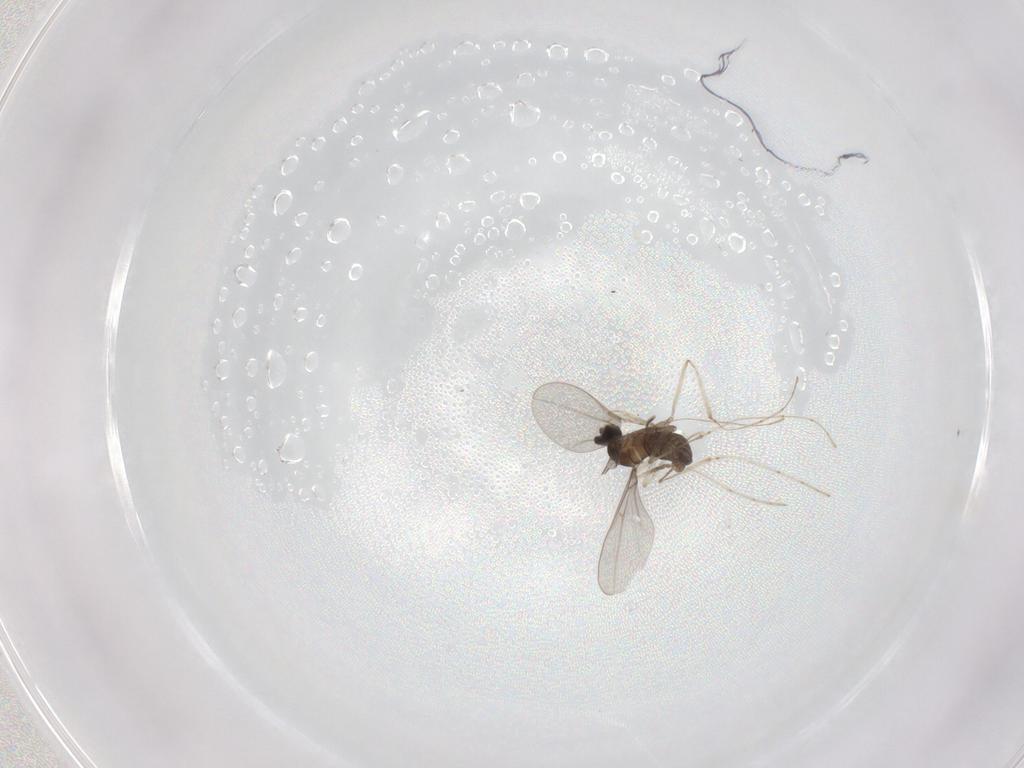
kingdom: Animalia
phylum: Arthropoda
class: Insecta
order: Diptera
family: Cecidomyiidae
